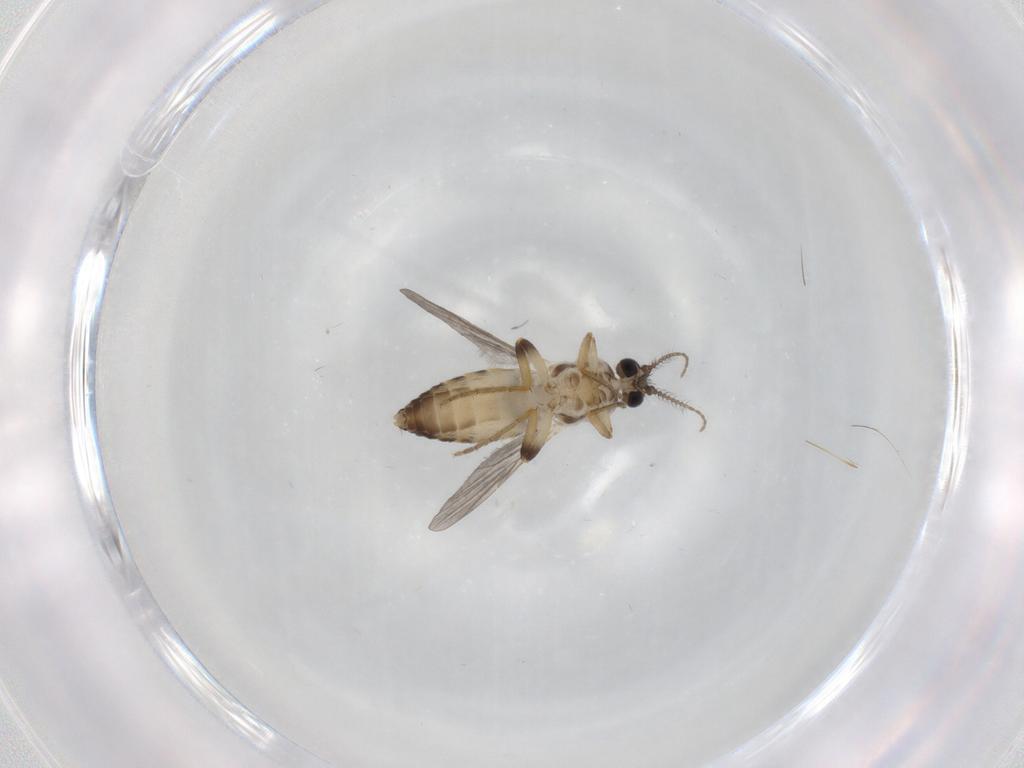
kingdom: Animalia
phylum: Arthropoda
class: Insecta
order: Diptera
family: Ceratopogonidae
